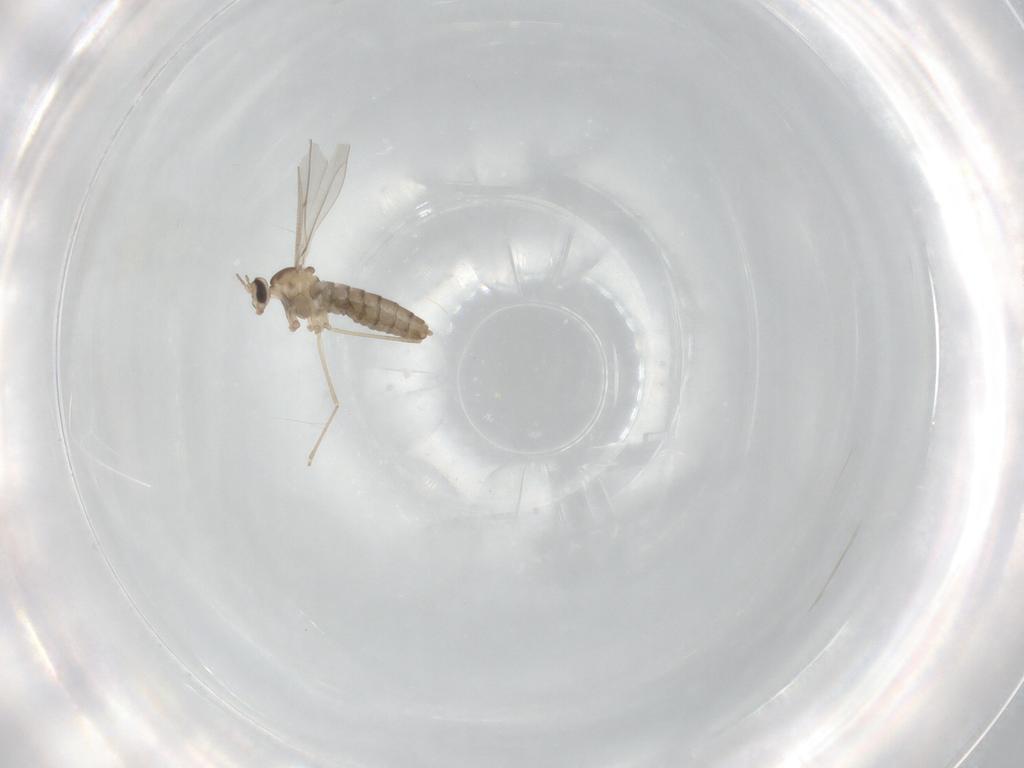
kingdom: Animalia
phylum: Arthropoda
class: Insecta
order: Diptera
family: Cecidomyiidae
